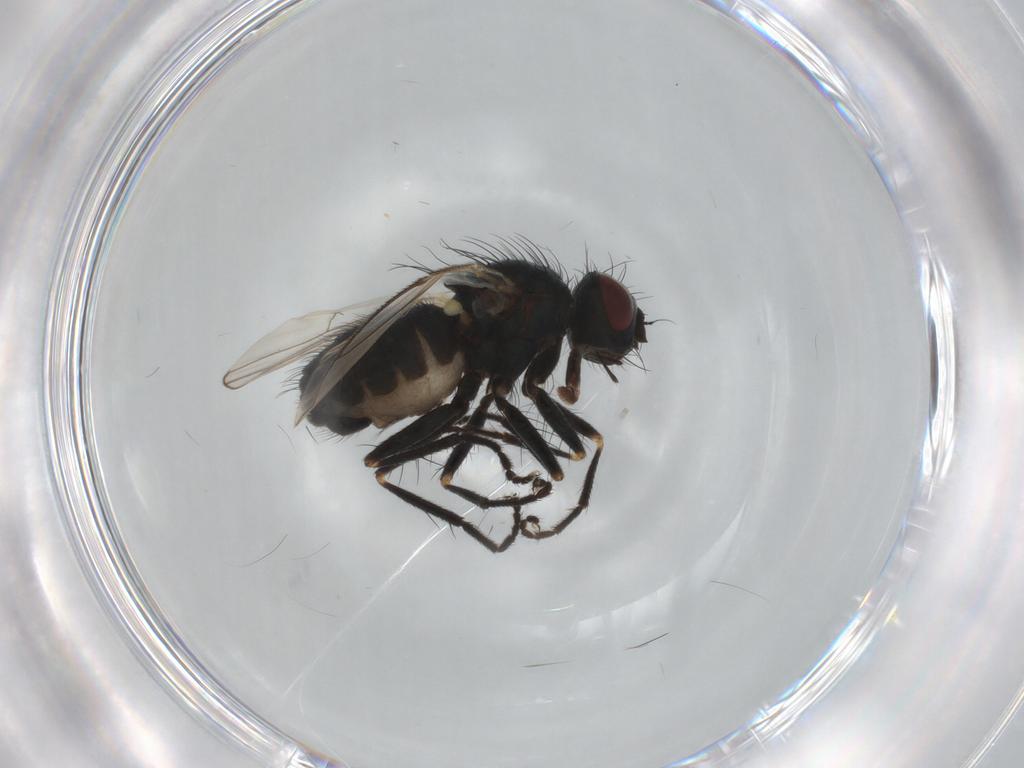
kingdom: Animalia
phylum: Arthropoda
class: Insecta
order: Diptera
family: Muscidae
